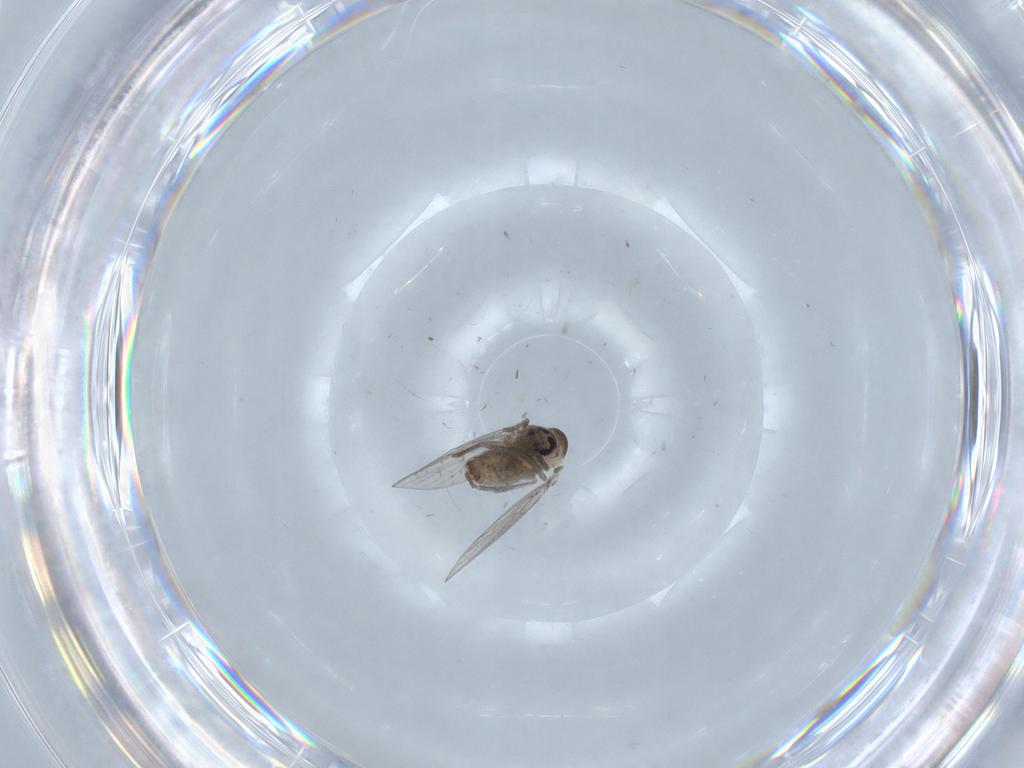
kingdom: Animalia
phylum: Arthropoda
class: Insecta
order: Diptera
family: Psychodidae
